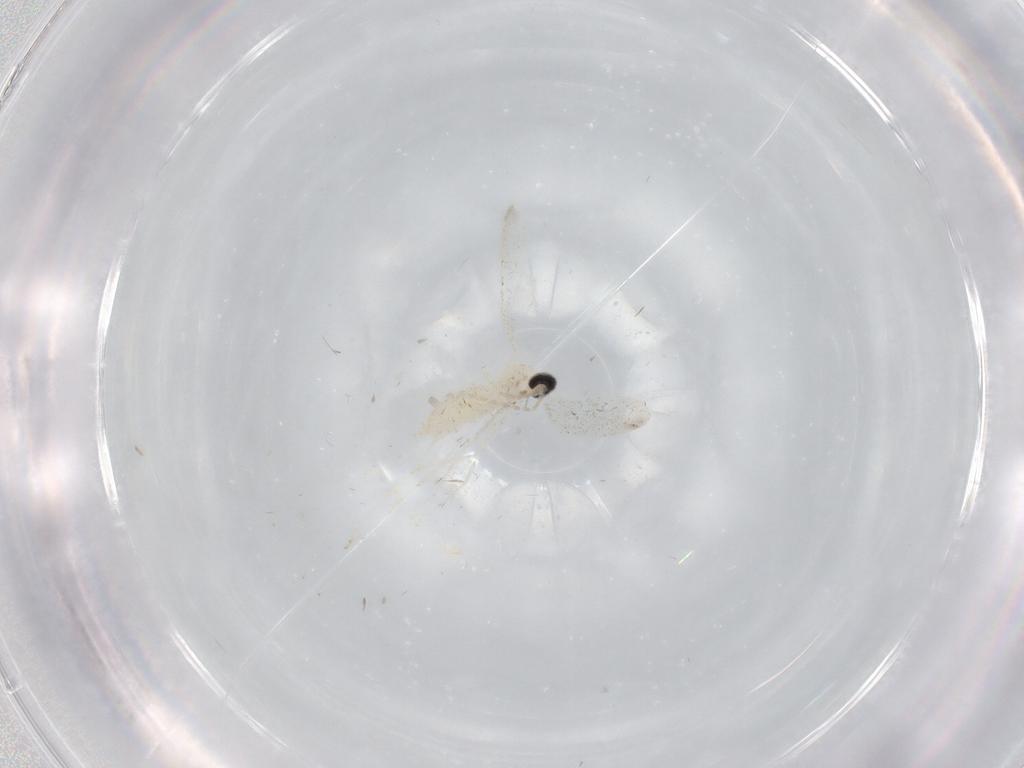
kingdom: Animalia
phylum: Arthropoda
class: Insecta
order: Diptera
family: Cecidomyiidae
